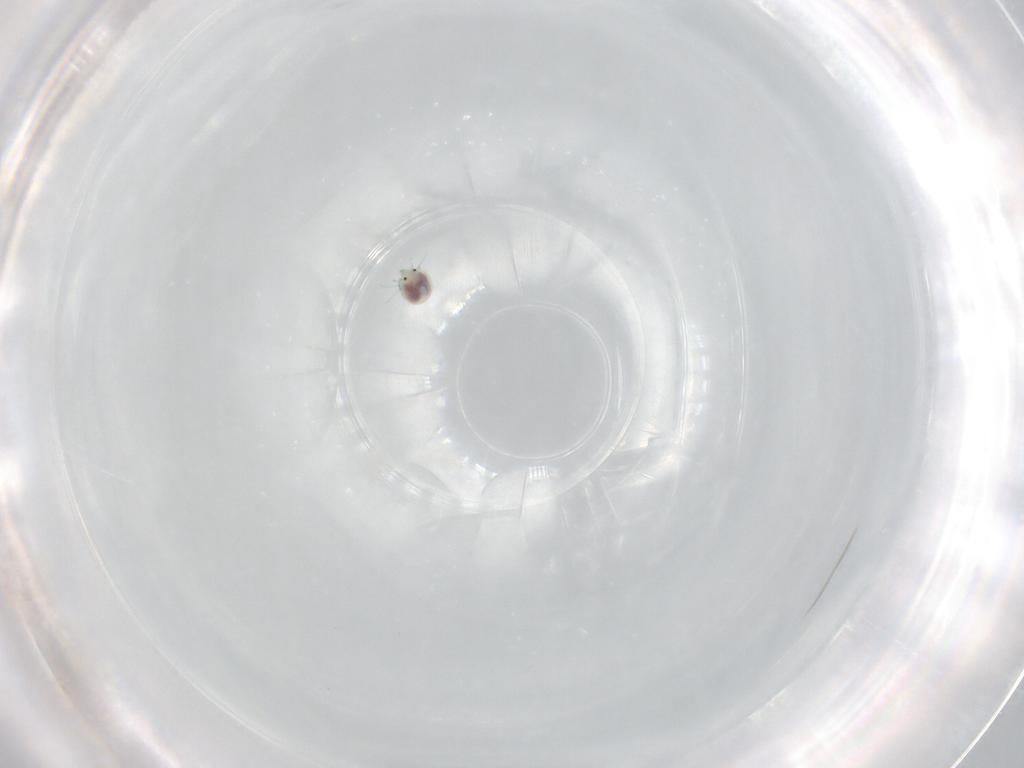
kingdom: Animalia
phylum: Arthropoda
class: Arachnida
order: Trombidiformes
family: Unionicolidae
